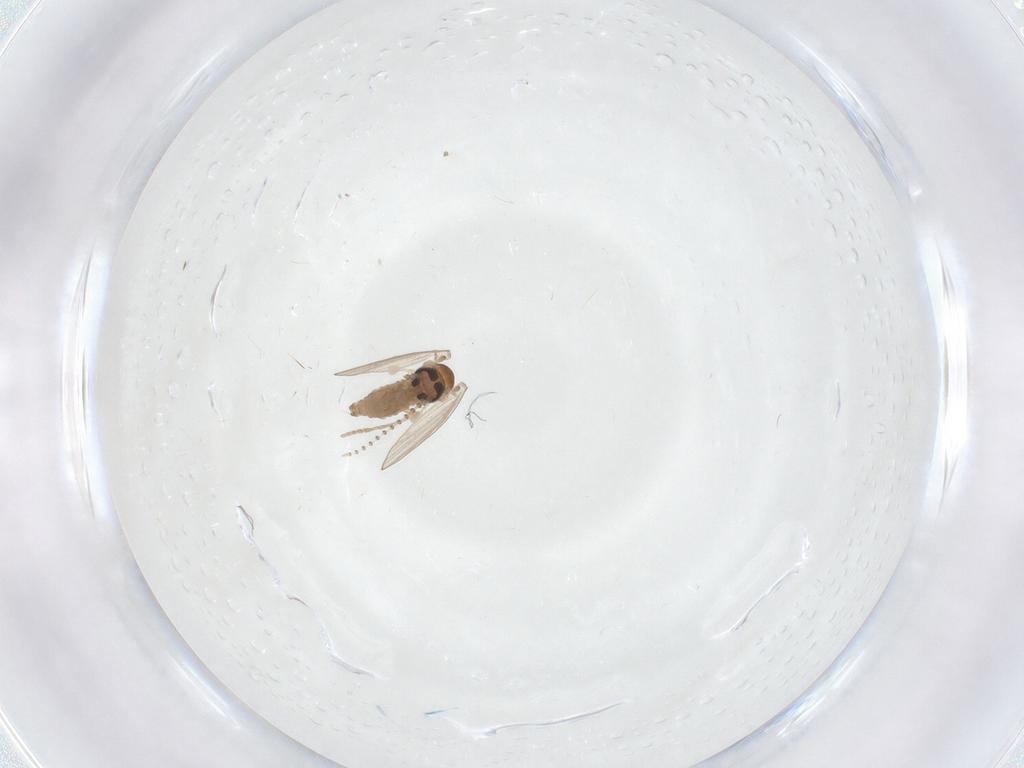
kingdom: Animalia
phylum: Arthropoda
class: Insecta
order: Diptera
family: Psychodidae
